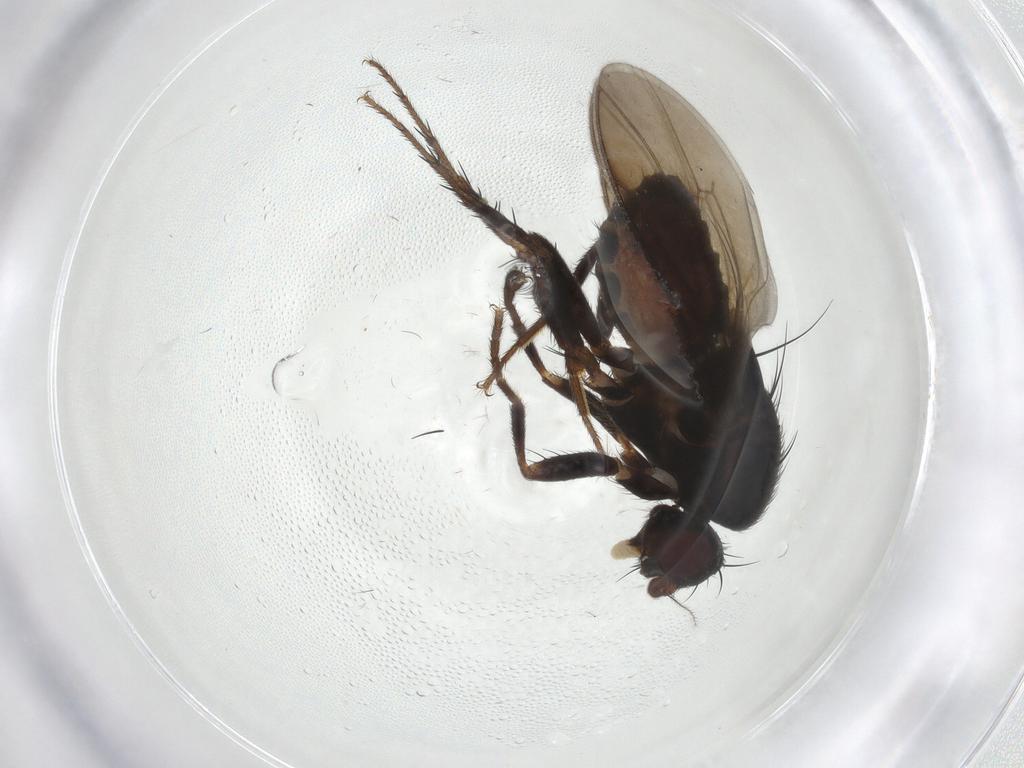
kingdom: Animalia
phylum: Arthropoda
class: Insecta
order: Diptera
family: Sphaeroceridae
